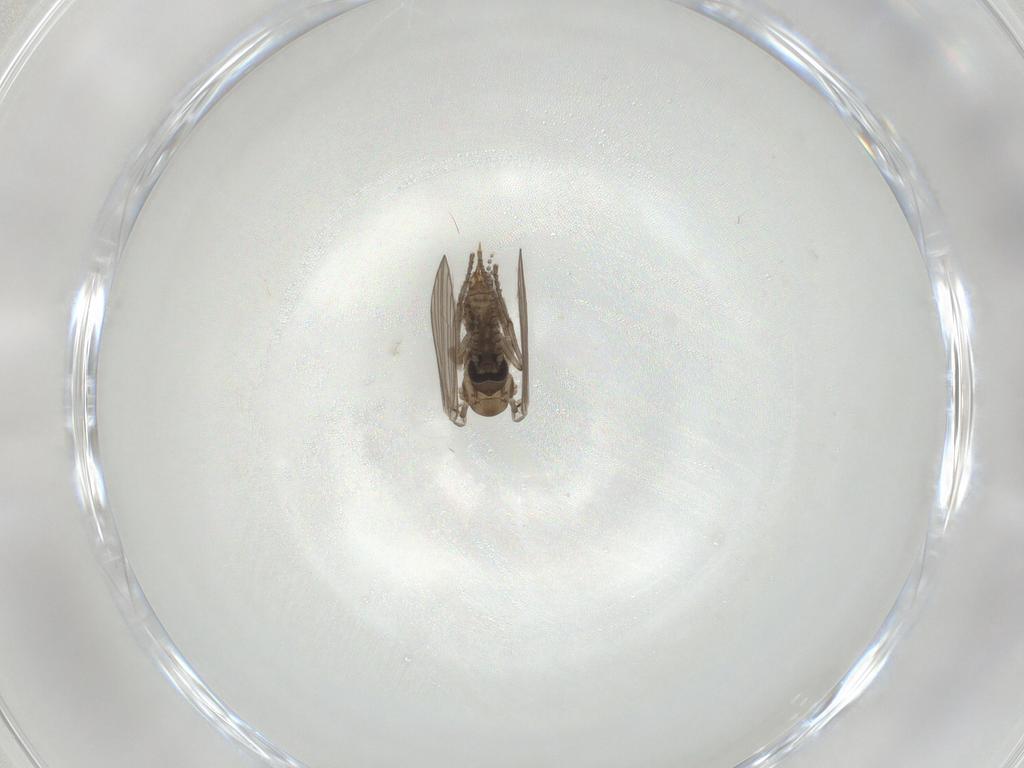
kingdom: Animalia
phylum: Arthropoda
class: Insecta
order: Diptera
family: Psychodidae
